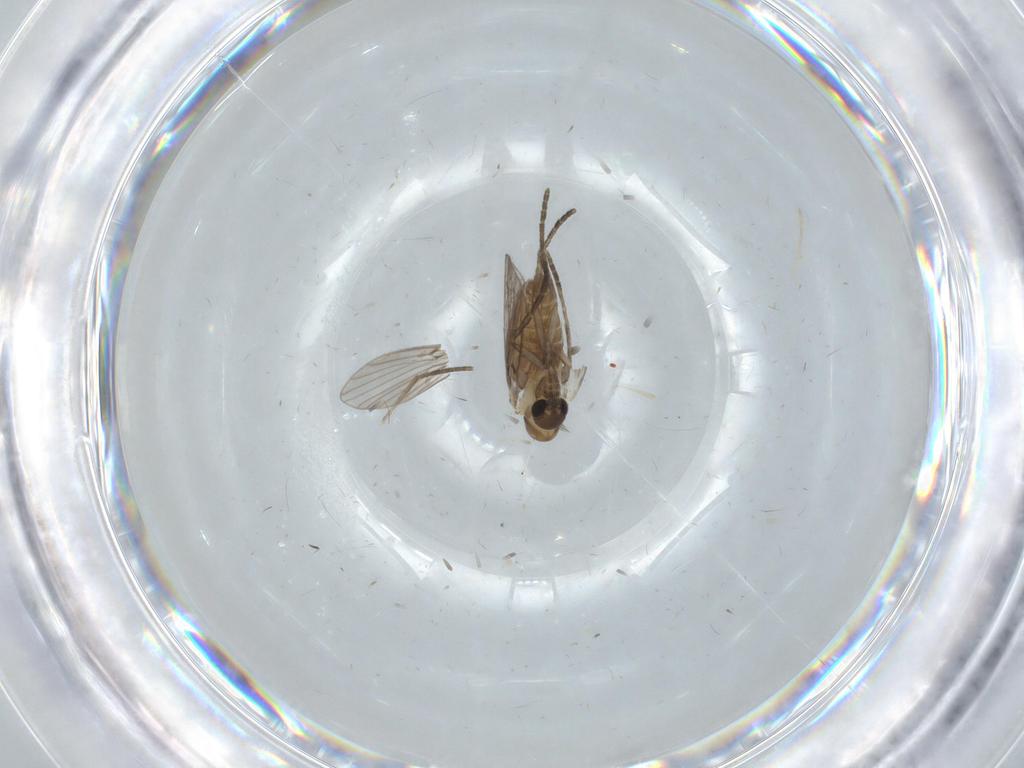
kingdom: Animalia
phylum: Arthropoda
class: Insecta
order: Diptera
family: Psychodidae
